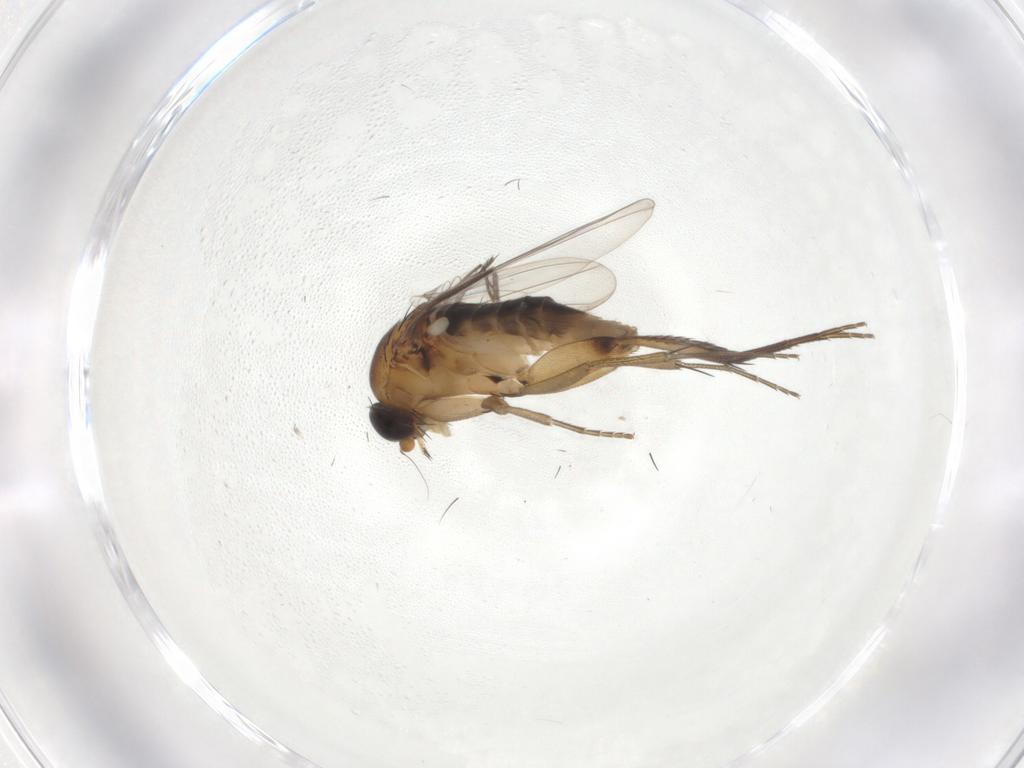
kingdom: Animalia
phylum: Arthropoda
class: Insecta
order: Diptera
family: Phoridae
